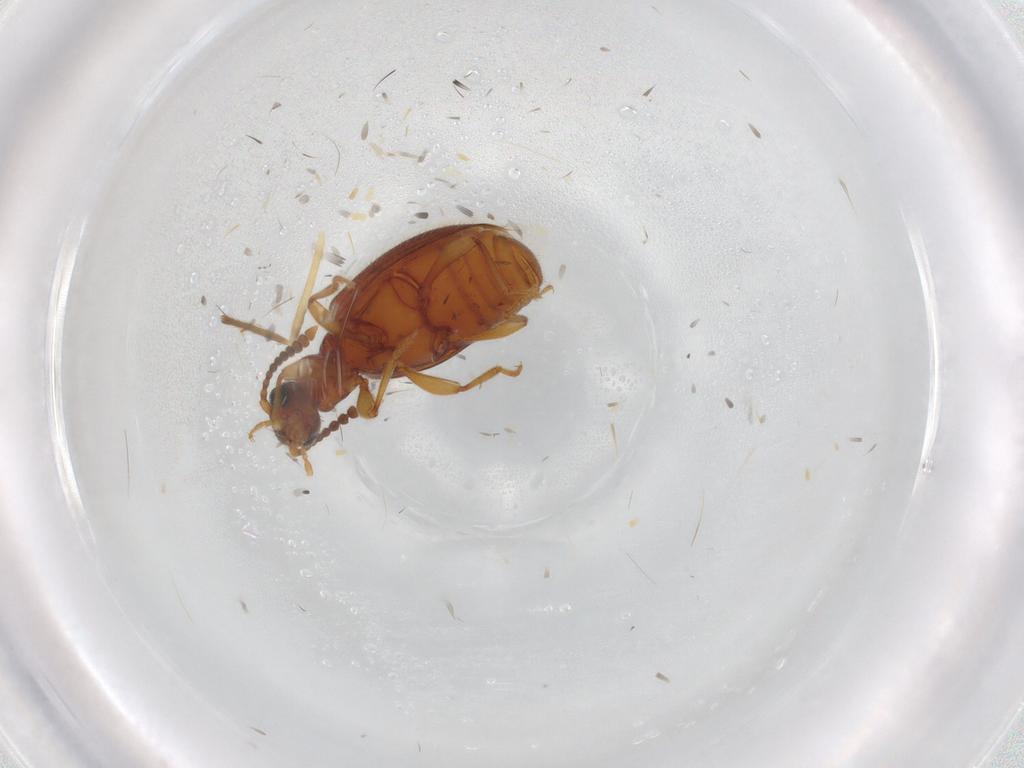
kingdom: Animalia
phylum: Arthropoda
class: Insecta
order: Coleoptera
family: Anthicidae
